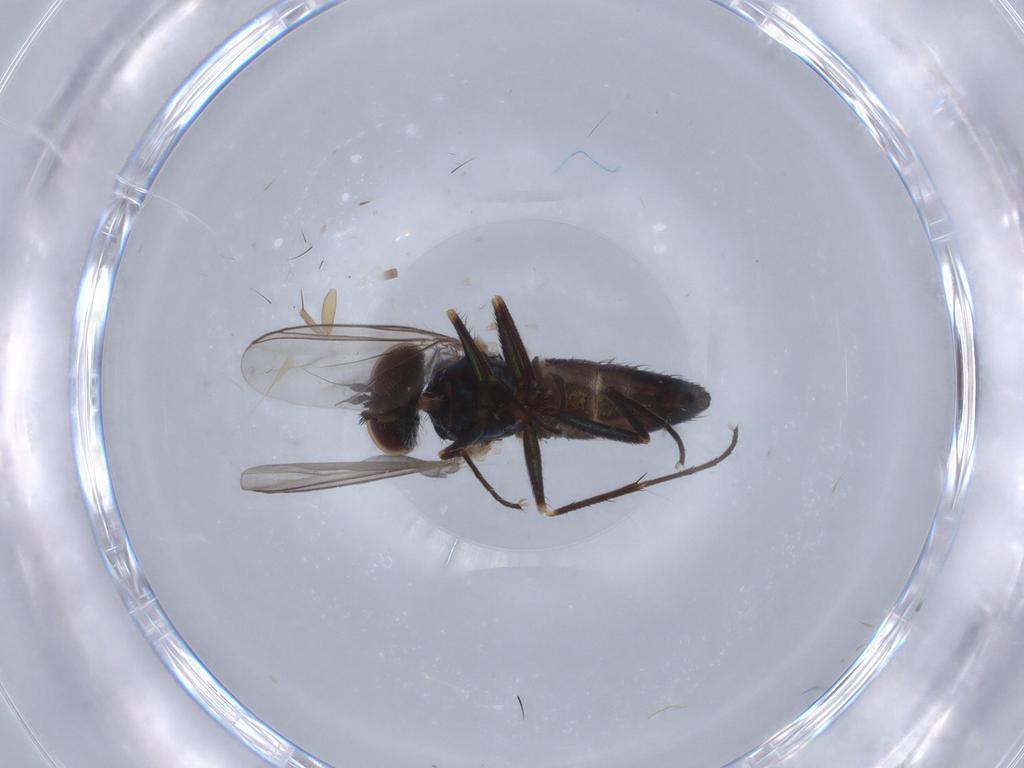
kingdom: Animalia
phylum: Arthropoda
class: Insecta
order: Diptera
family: Dolichopodidae
